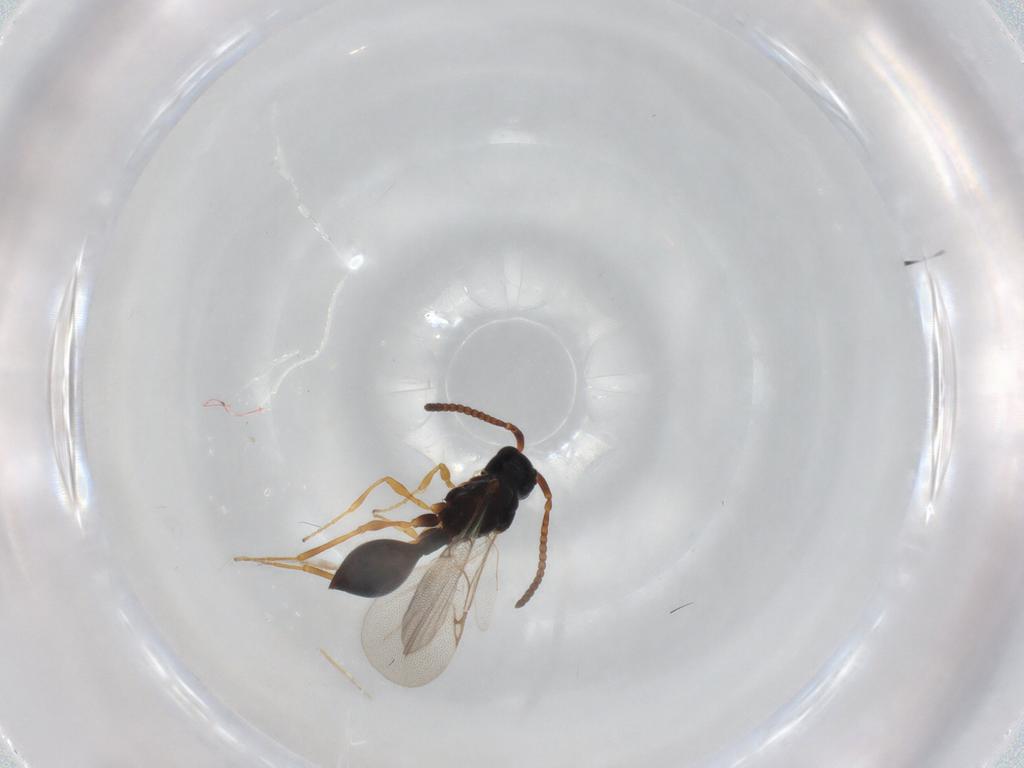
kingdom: Animalia
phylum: Arthropoda
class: Insecta
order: Hymenoptera
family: Diapriidae
